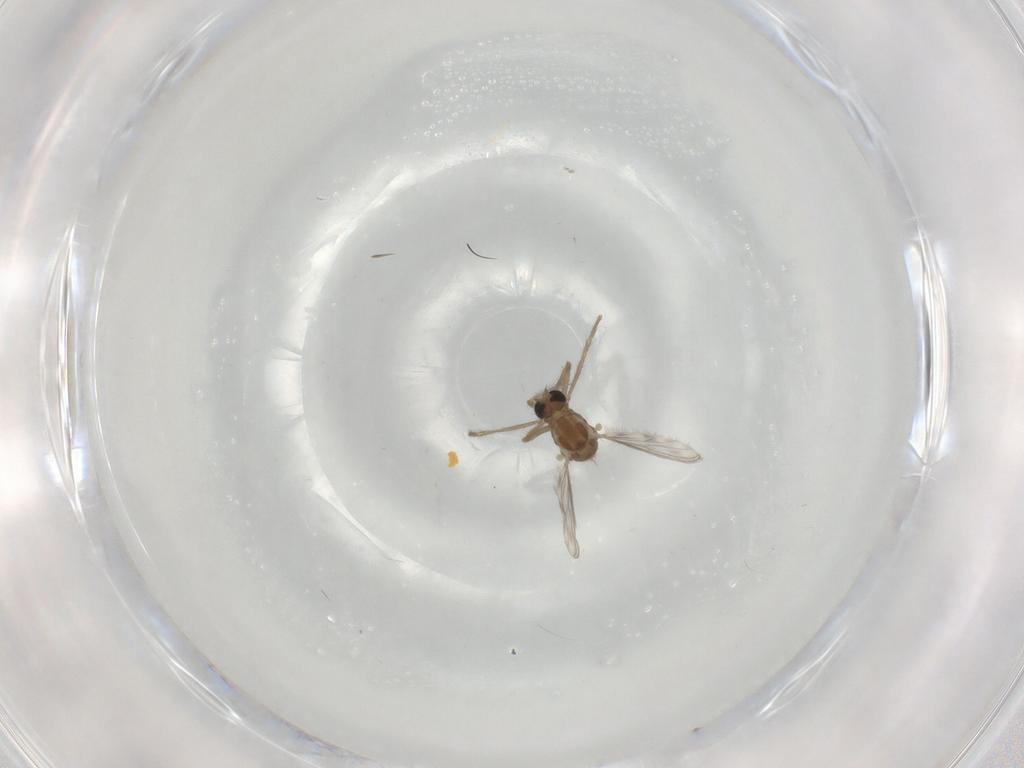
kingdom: Animalia
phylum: Arthropoda
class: Insecta
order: Diptera
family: Chironomidae
